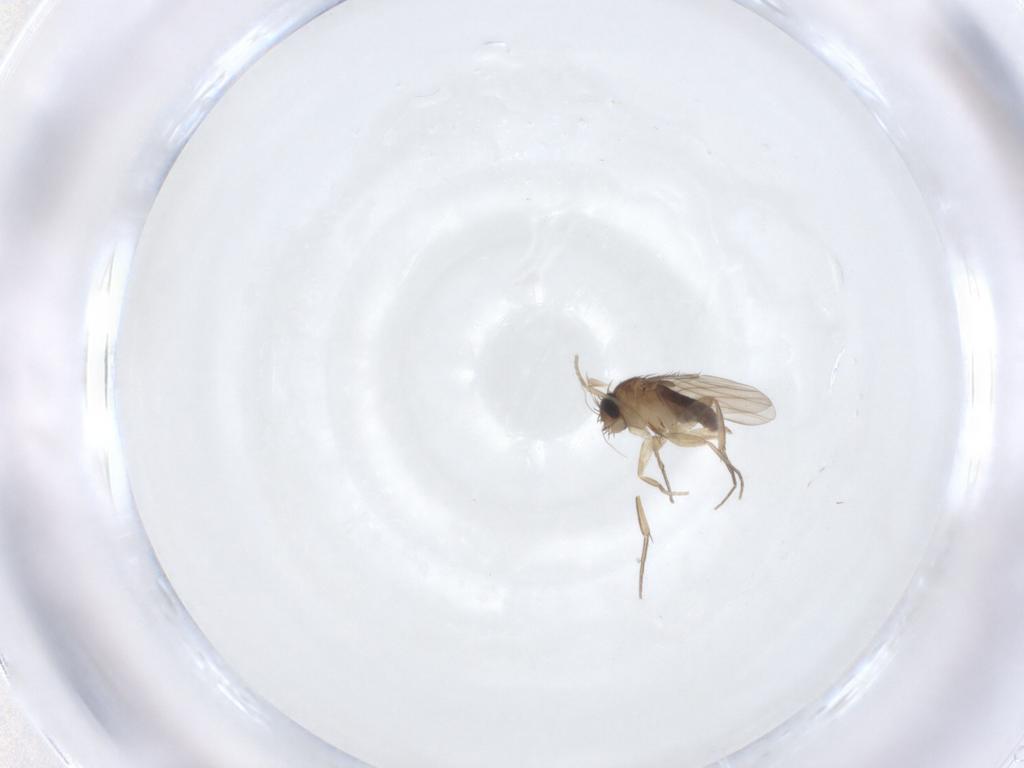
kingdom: Animalia
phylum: Arthropoda
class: Insecta
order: Diptera
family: Phoridae
